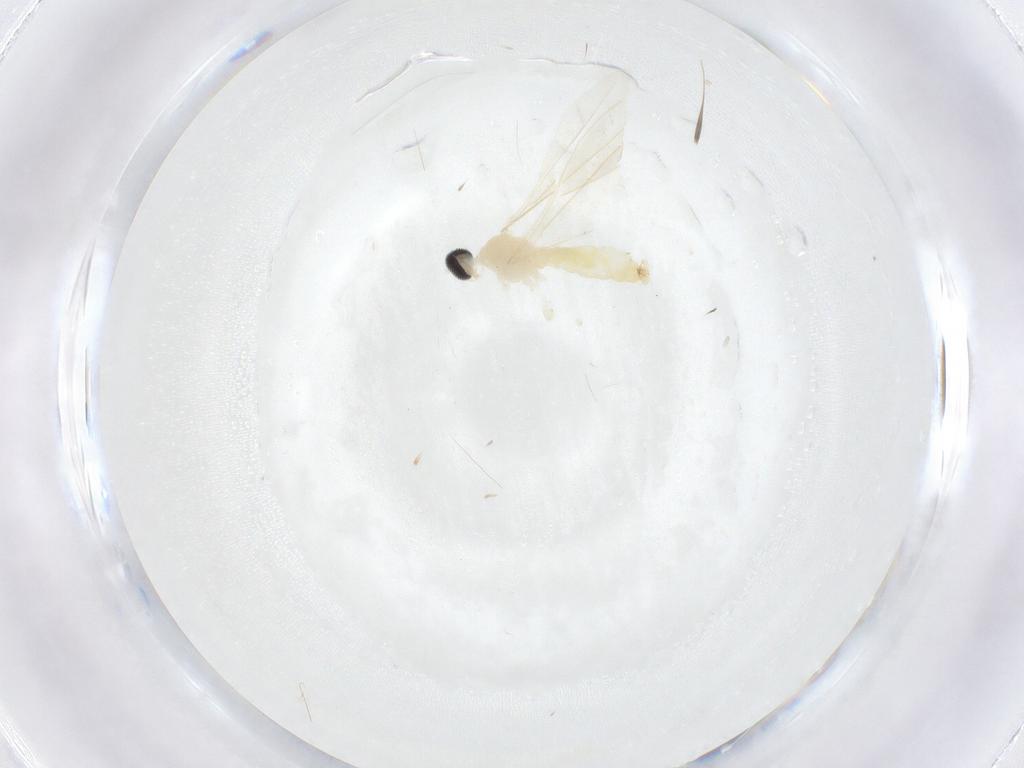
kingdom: Animalia
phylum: Arthropoda
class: Insecta
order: Diptera
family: Cecidomyiidae
